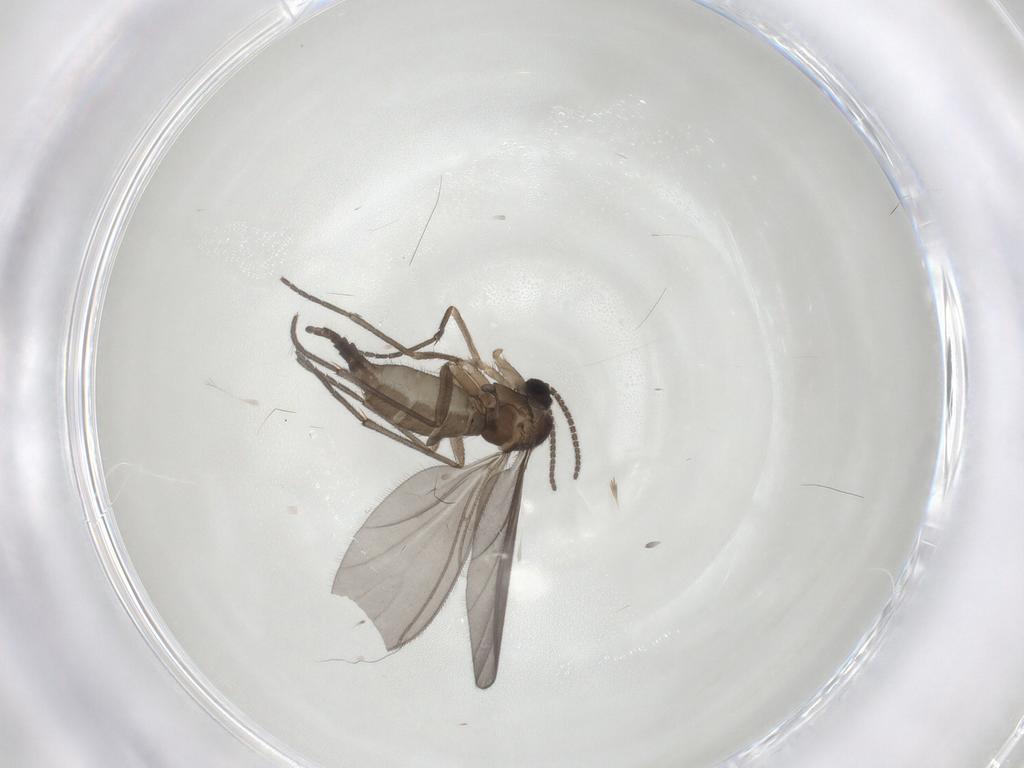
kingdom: Animalia
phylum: Arthropoda
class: Insecta
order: Diptera
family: Sciaridae
